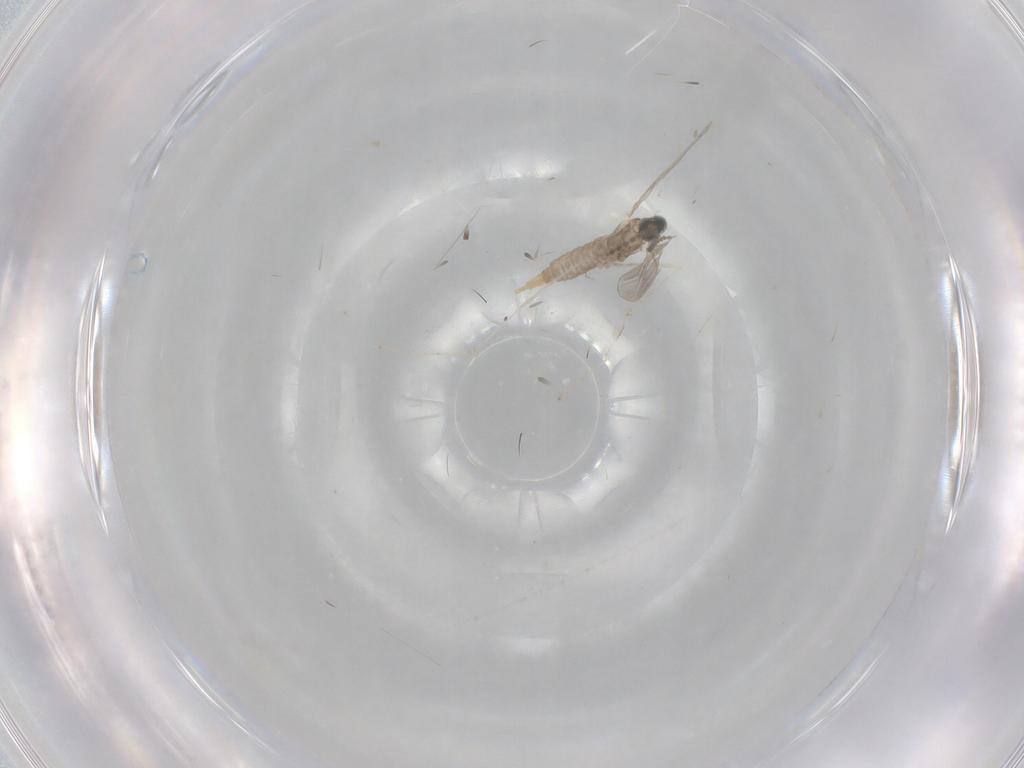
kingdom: Animalia
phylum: Arthropoda
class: Insecta
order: Diptera
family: Cecidomyiidae
